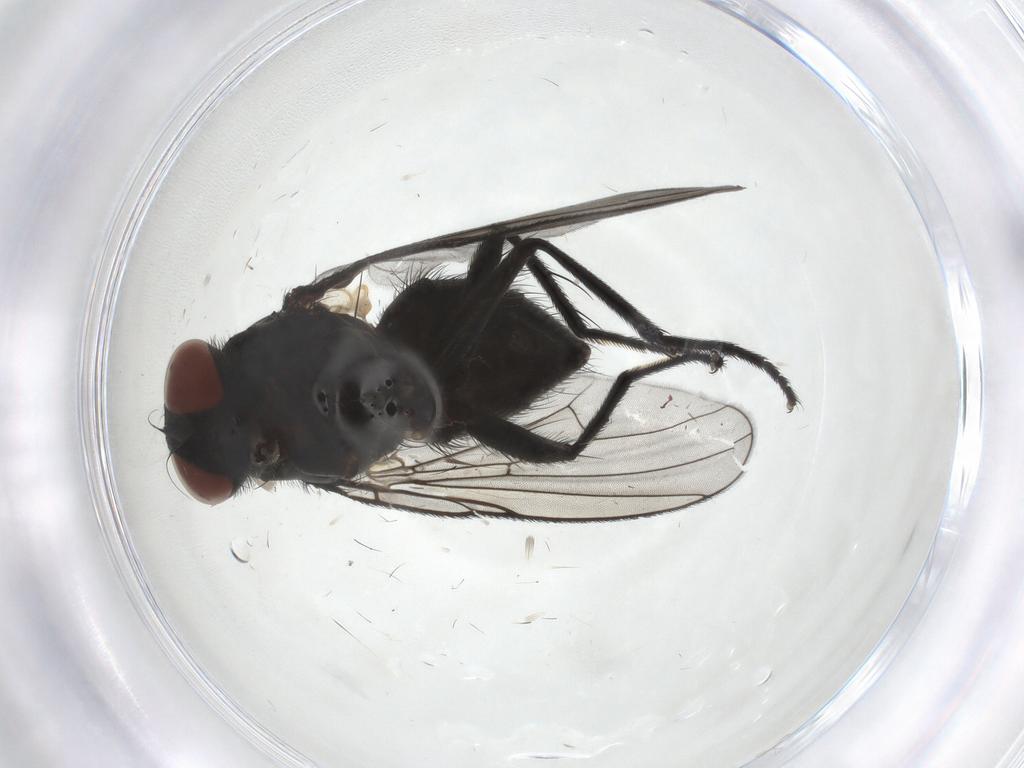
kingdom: Animalia
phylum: Arthropoda
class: Insecta
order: Diptera
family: Muscidae
